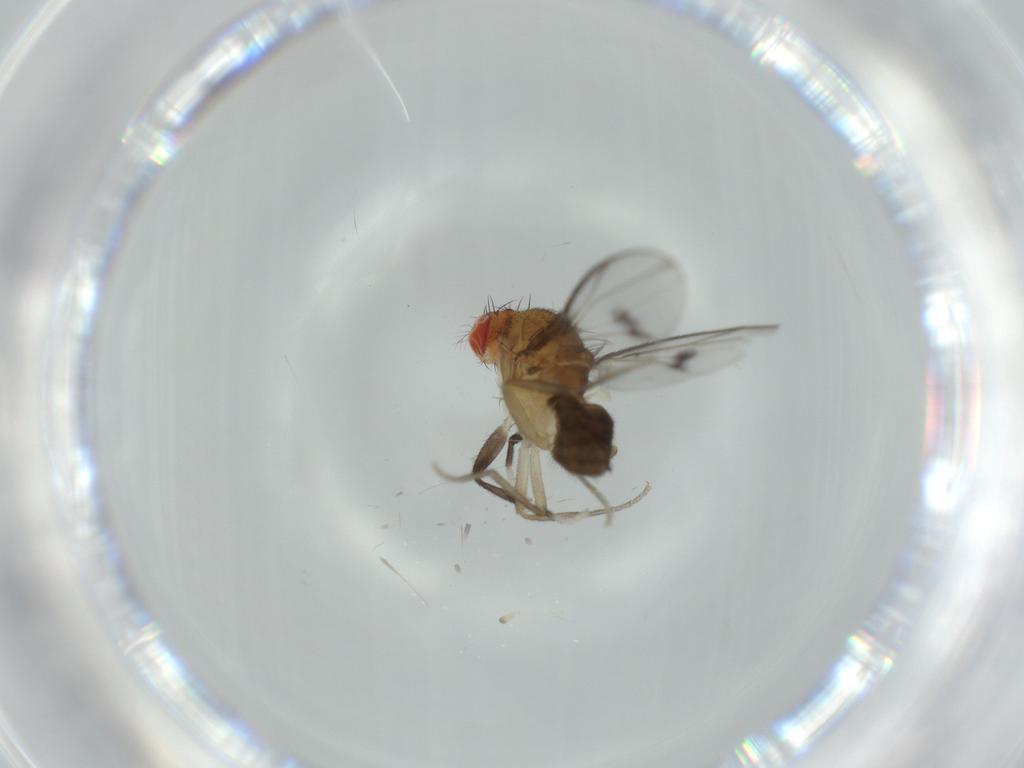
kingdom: Animalia
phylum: Arthropoda
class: Insecta
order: Diptera
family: Drosophilidae
